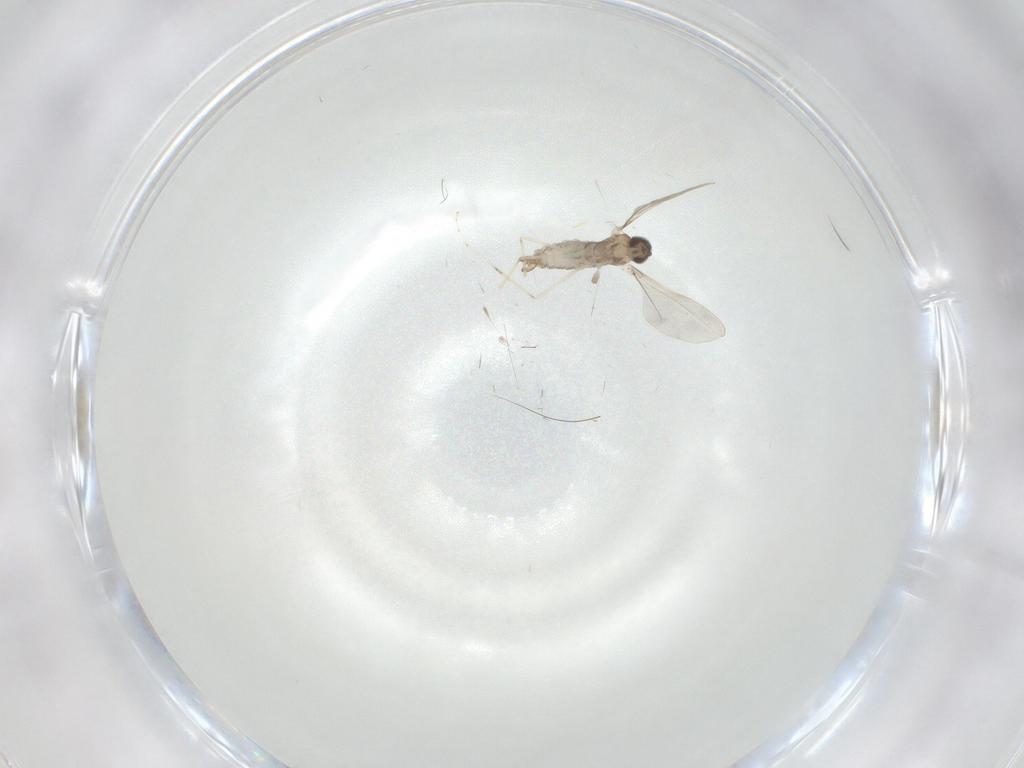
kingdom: Animalia
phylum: Arthropoda
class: Insecta
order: Diptera
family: Cecidomyiidae
